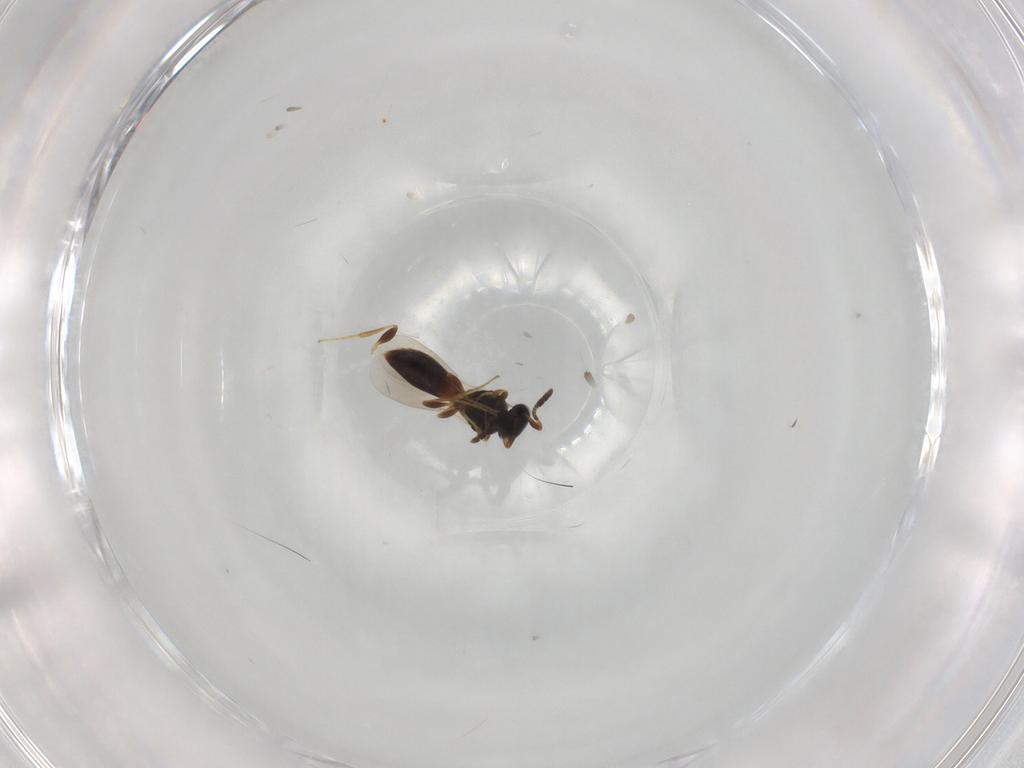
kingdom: Animalia
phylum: Arthropoda
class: Insecta
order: Hymenoptera
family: Platygastridae
